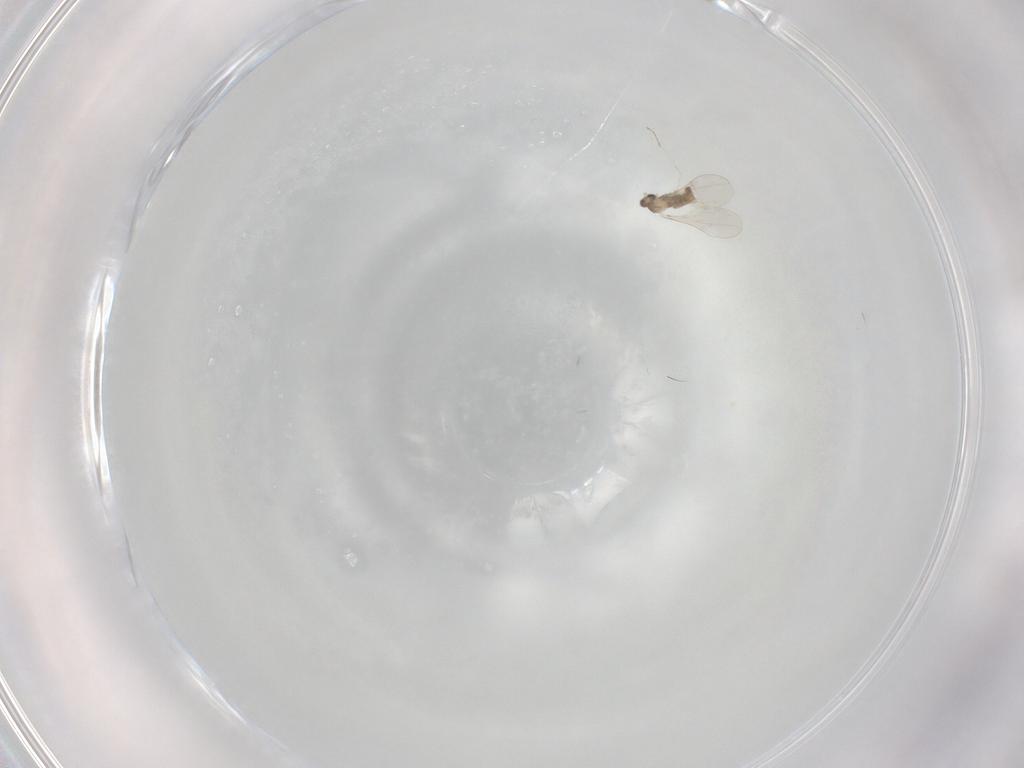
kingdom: Animalia
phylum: Arthropoda
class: Insecta
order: Diptera
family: Cecidomyiidae
